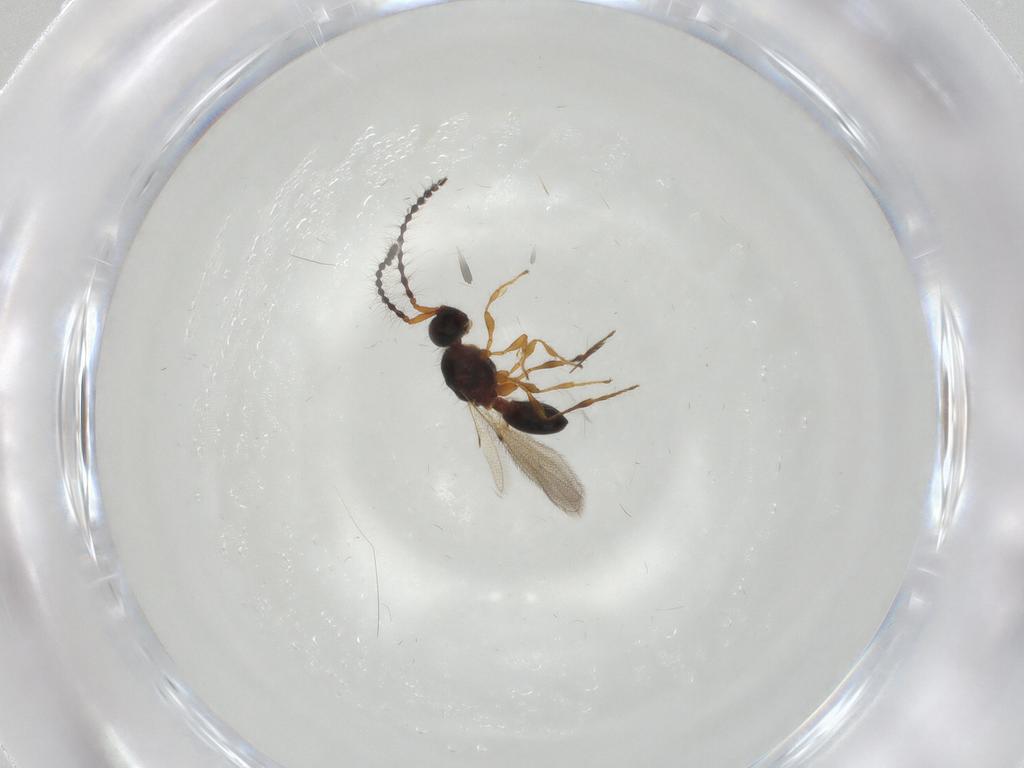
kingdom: Animalia
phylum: Arthropoda
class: Insecta
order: Hymenoptera
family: Diapriidae
